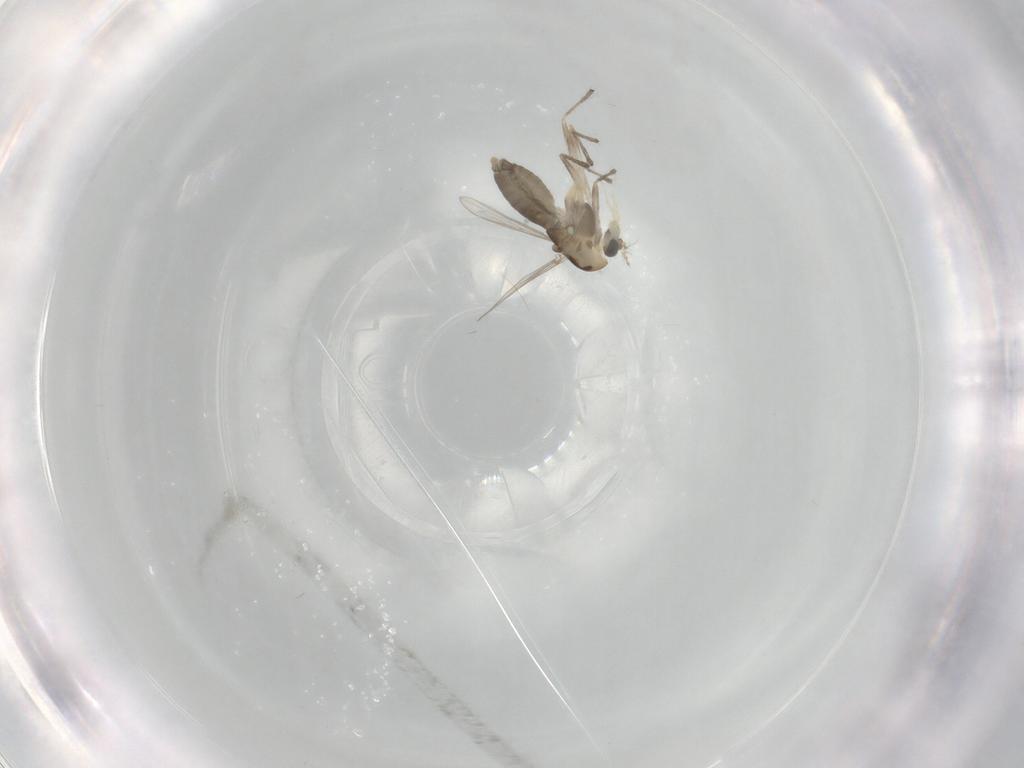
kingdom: Animalia
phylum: Arthropoda
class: Insecta
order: Diptera
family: Chironomidae
